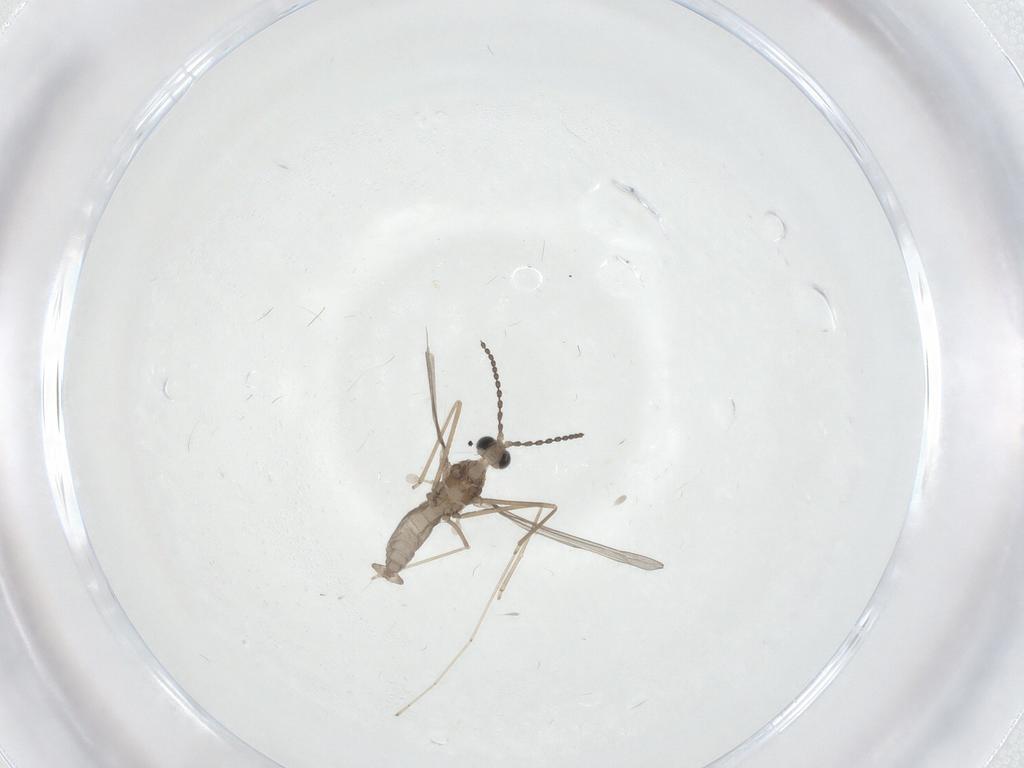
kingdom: Animalia
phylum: Arthropoda
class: Insecta
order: Diptera
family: Cecidomyiidae
